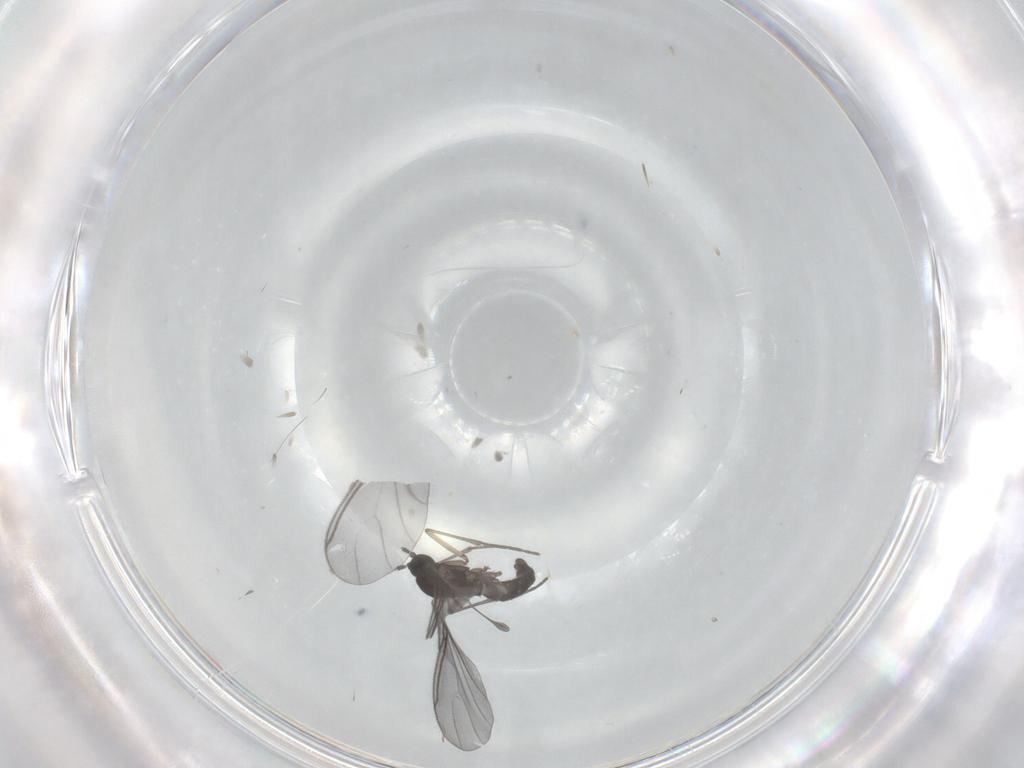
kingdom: Animalia
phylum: Arthropoda
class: Insecta
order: Diptera
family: Sciaridae
